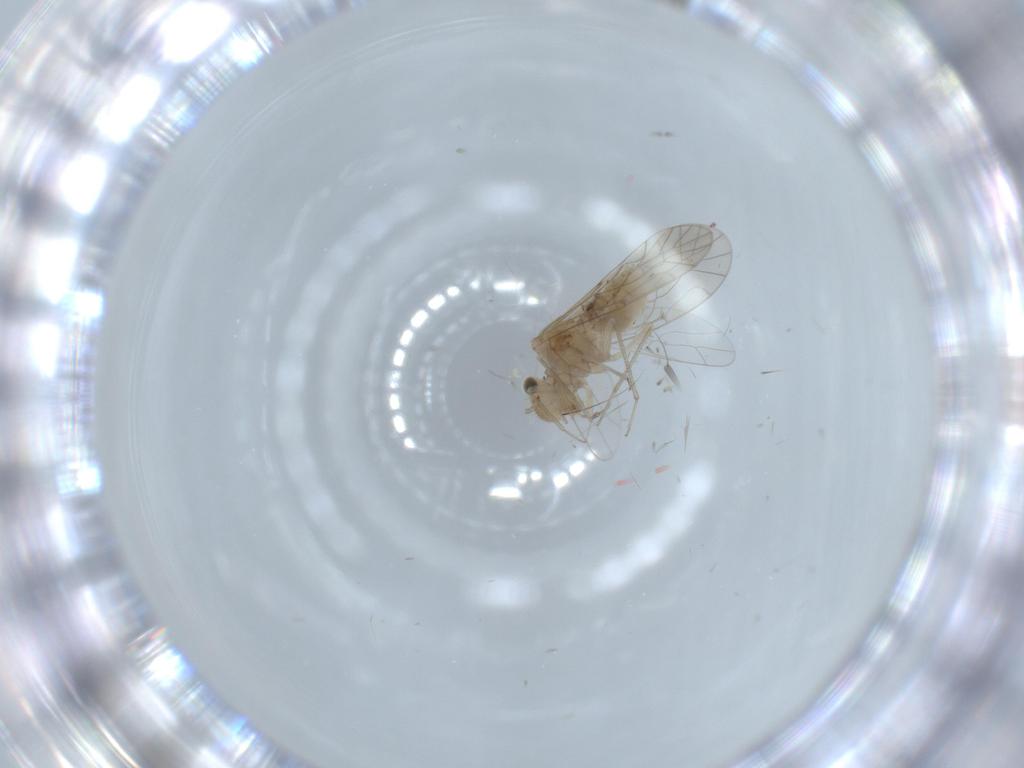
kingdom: Animalia
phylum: Arthropoda
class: Insecta
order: Psocodea
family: Lachesillidae
